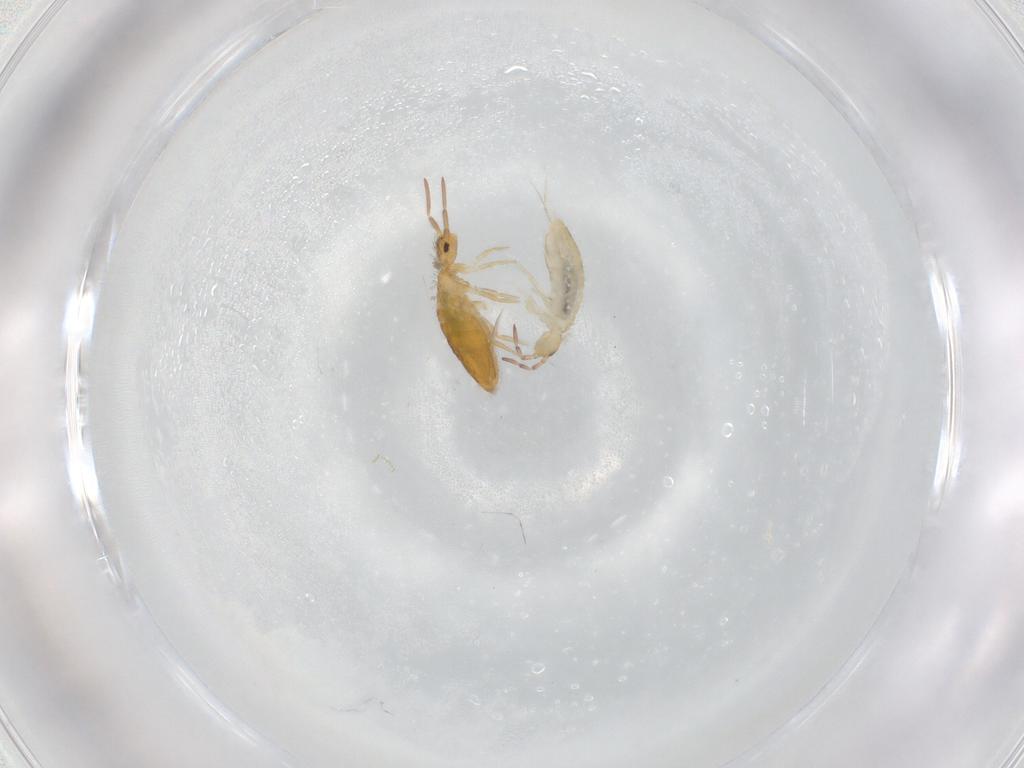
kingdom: Animalia
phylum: Arthropoda
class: Collembola
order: Entomobryomorpha
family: Entomobryidae
